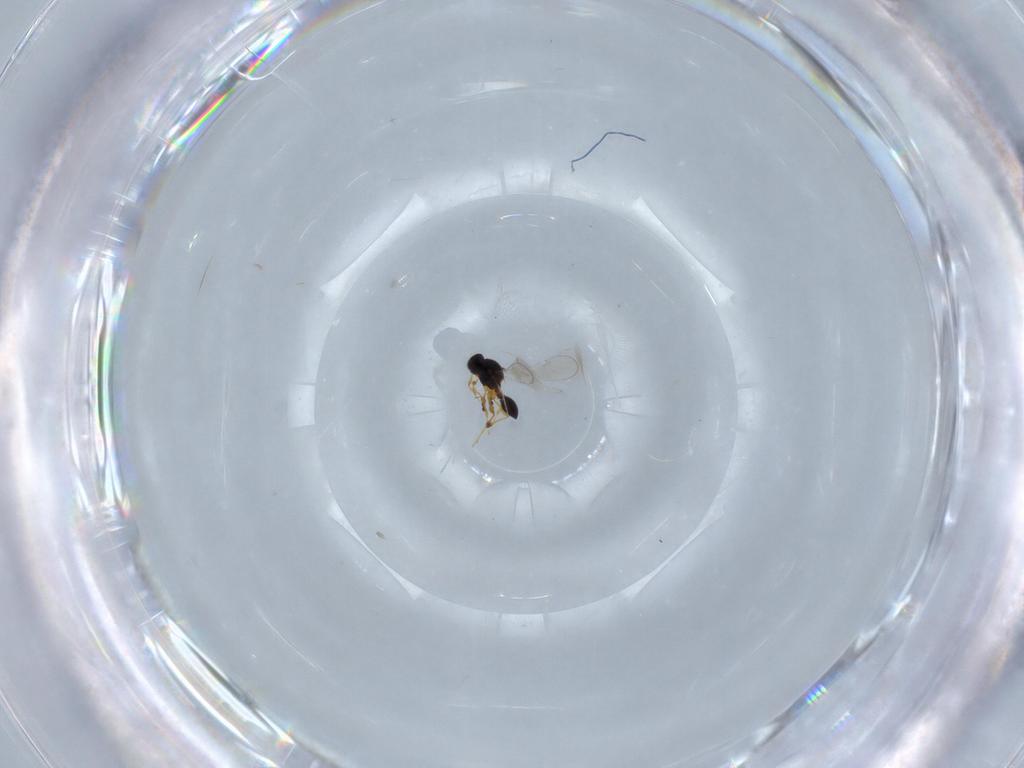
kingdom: Animalia
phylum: Arthropoda
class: Insecta
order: Hymenoptera
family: Platygastridae
